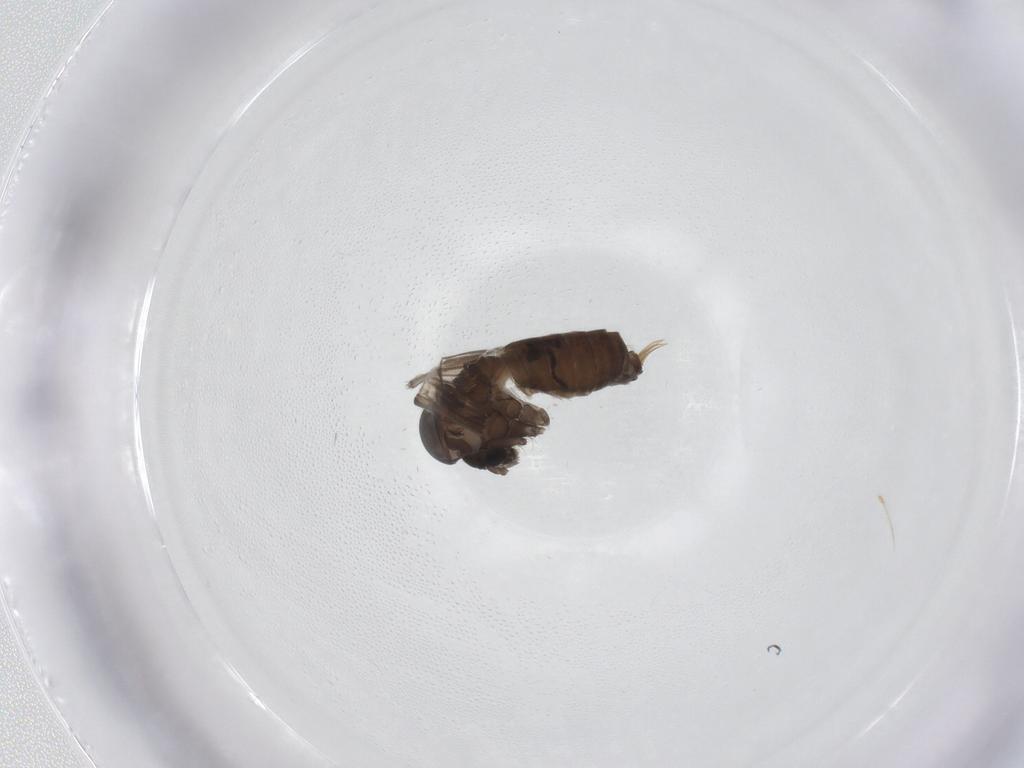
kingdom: Animalia
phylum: Arthropoda
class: Insecta
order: Diptera
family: Psychodidae
